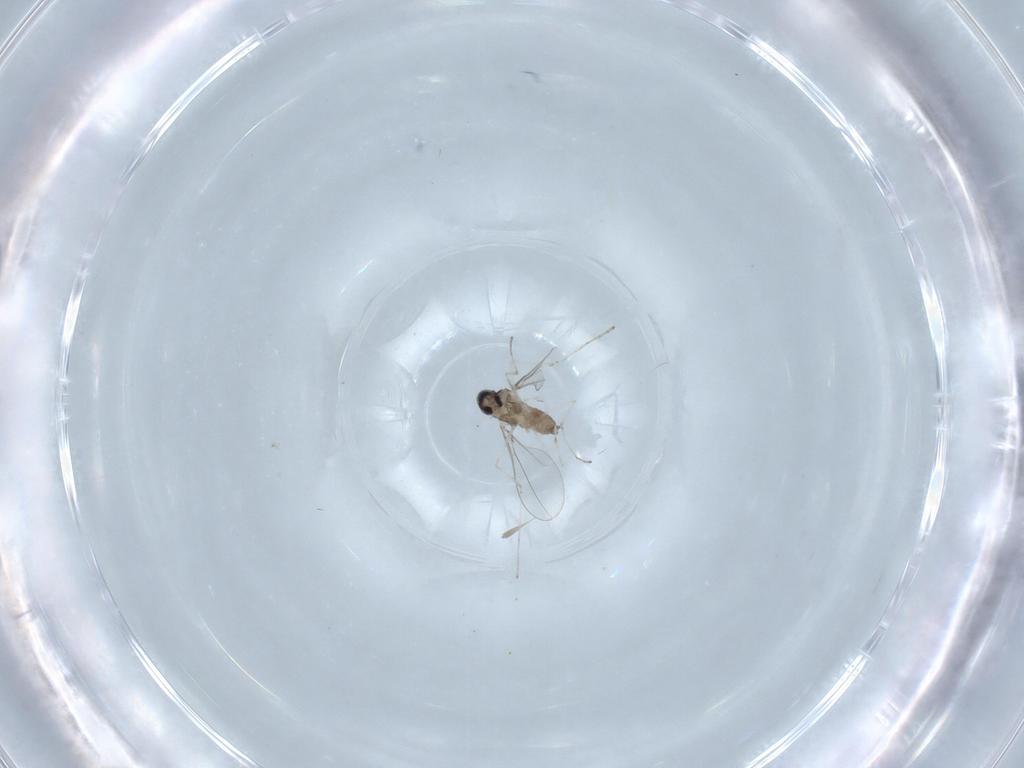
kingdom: Animalia
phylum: Arthropoda
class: Insecta
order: Diptera
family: Cecidomyiidae
